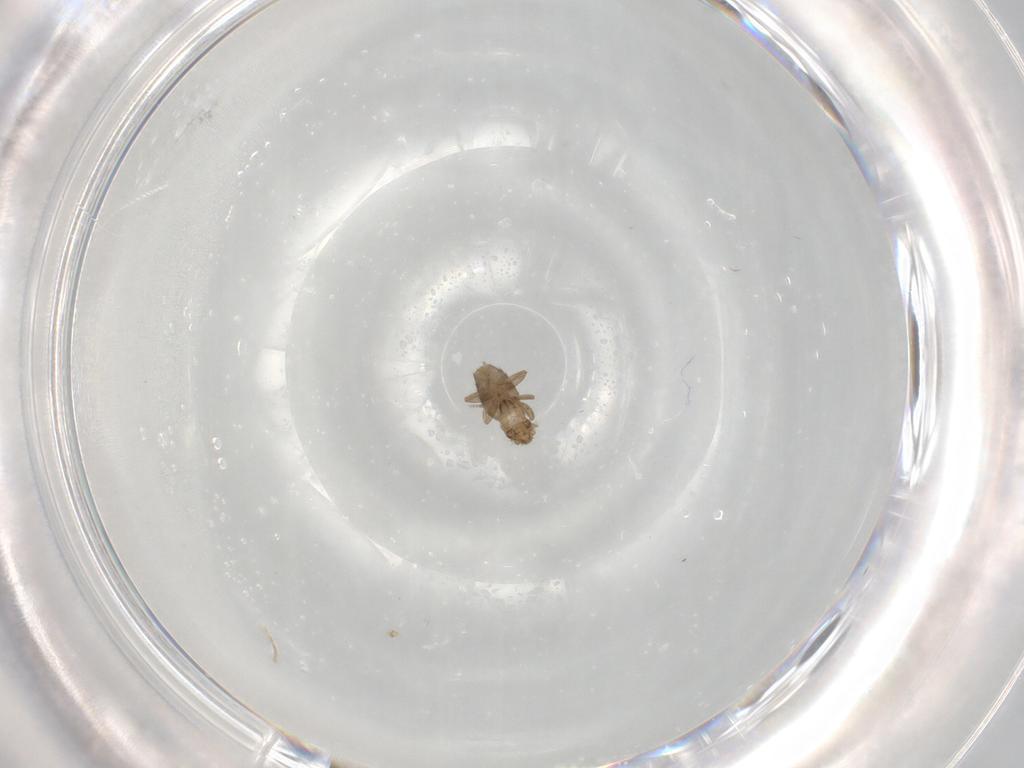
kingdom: Animalia
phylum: Arthropoda
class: Insecta
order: Diptera
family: Phoridae
